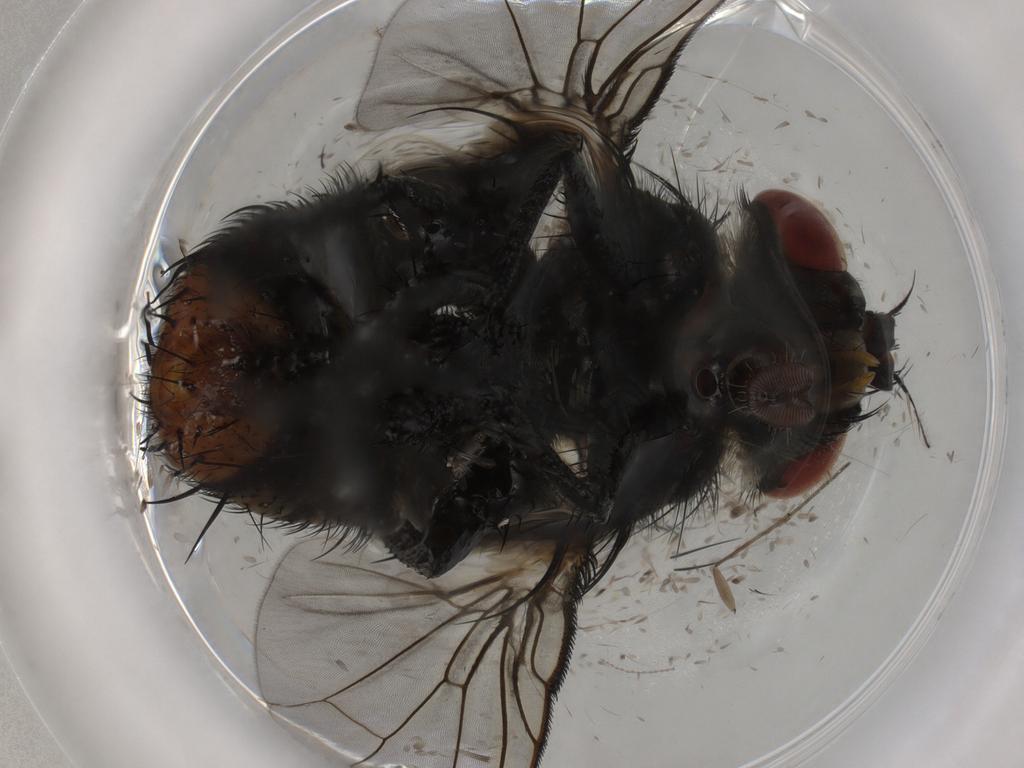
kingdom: Animalia
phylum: Arthropoda
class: Insecta
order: Diptera
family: Tachinidae
